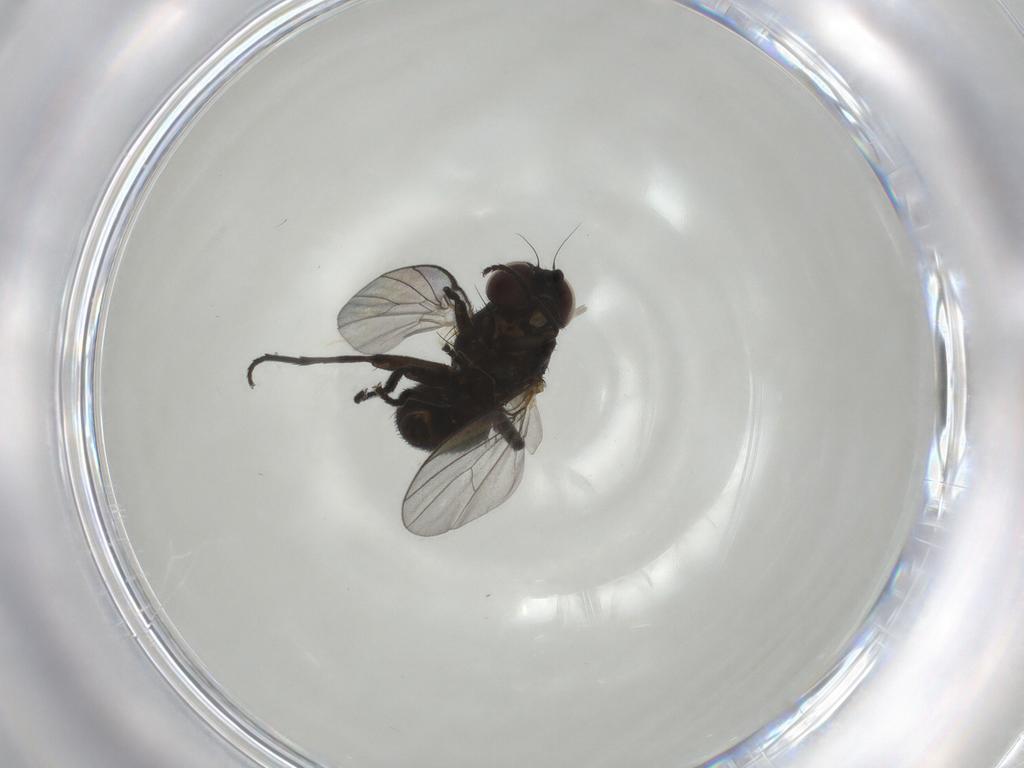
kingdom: Animalia
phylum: Arthropoda
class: Insecta
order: Diptera
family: Agromyzidae
